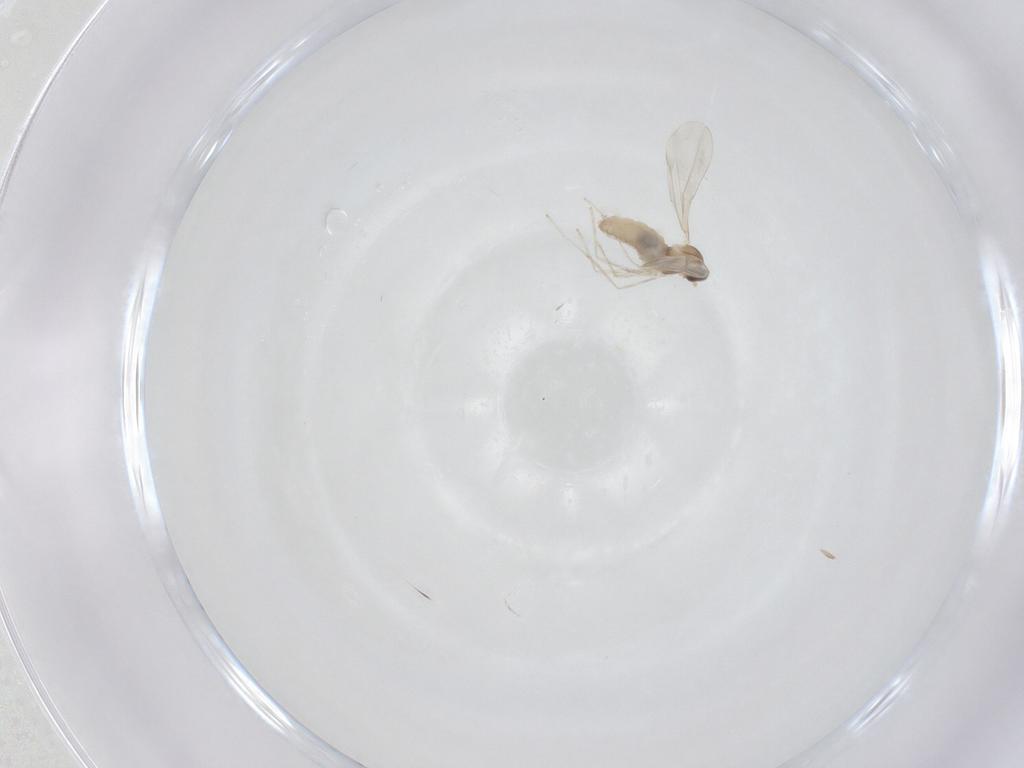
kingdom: Animalia
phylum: Arthropoda
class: Insecta
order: Diptera
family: Cecidomyiidae
